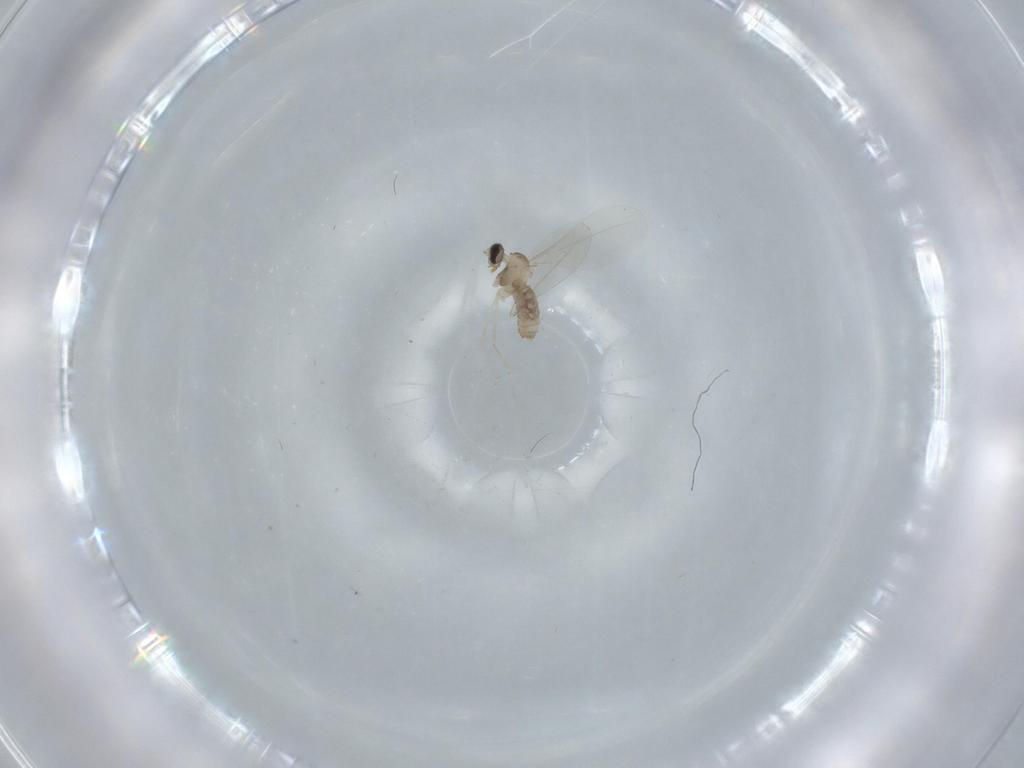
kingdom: Animalia
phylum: Arthropoda
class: Insecta
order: Diptera
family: Cecidomyiidae
